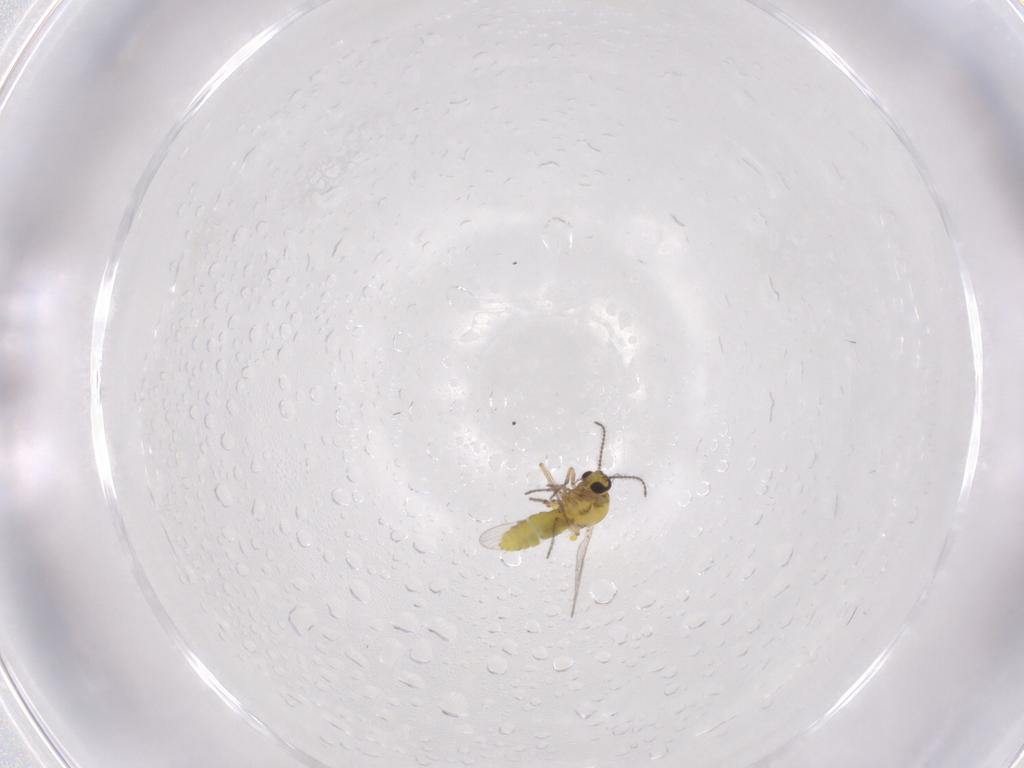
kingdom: Animalia
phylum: Arthropoda
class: Insecta
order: Diptera
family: Ceratopogonidae
